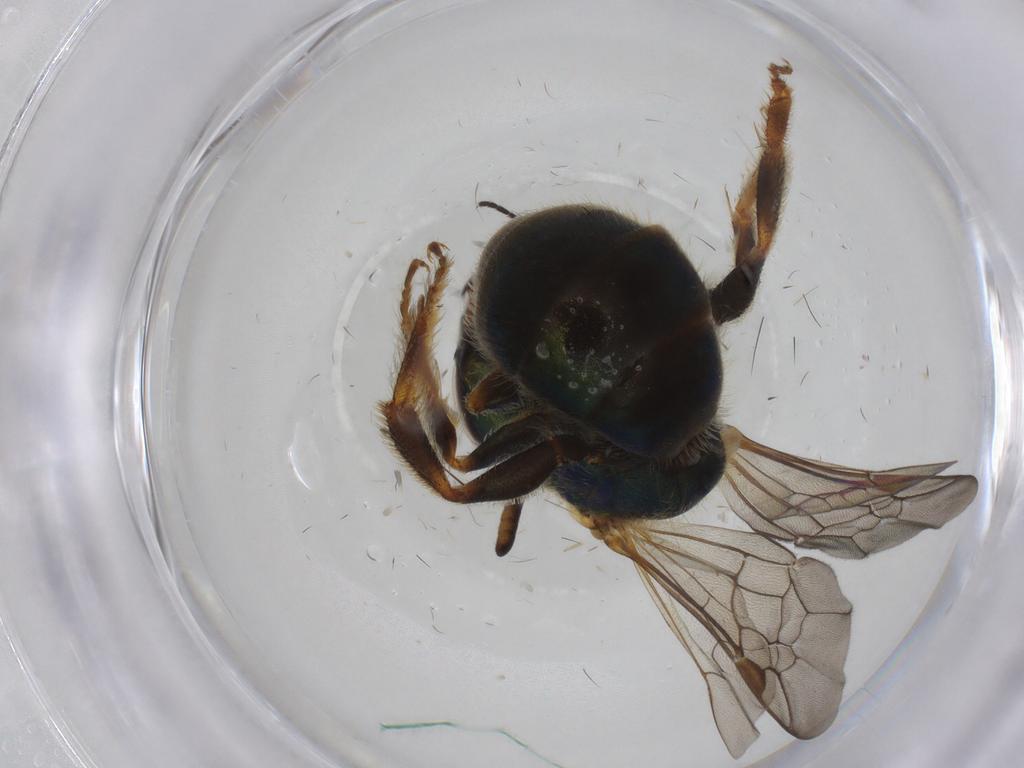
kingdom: Animalia
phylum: Arthropoda
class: Insecta
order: Hymenoptera
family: Halictidae
